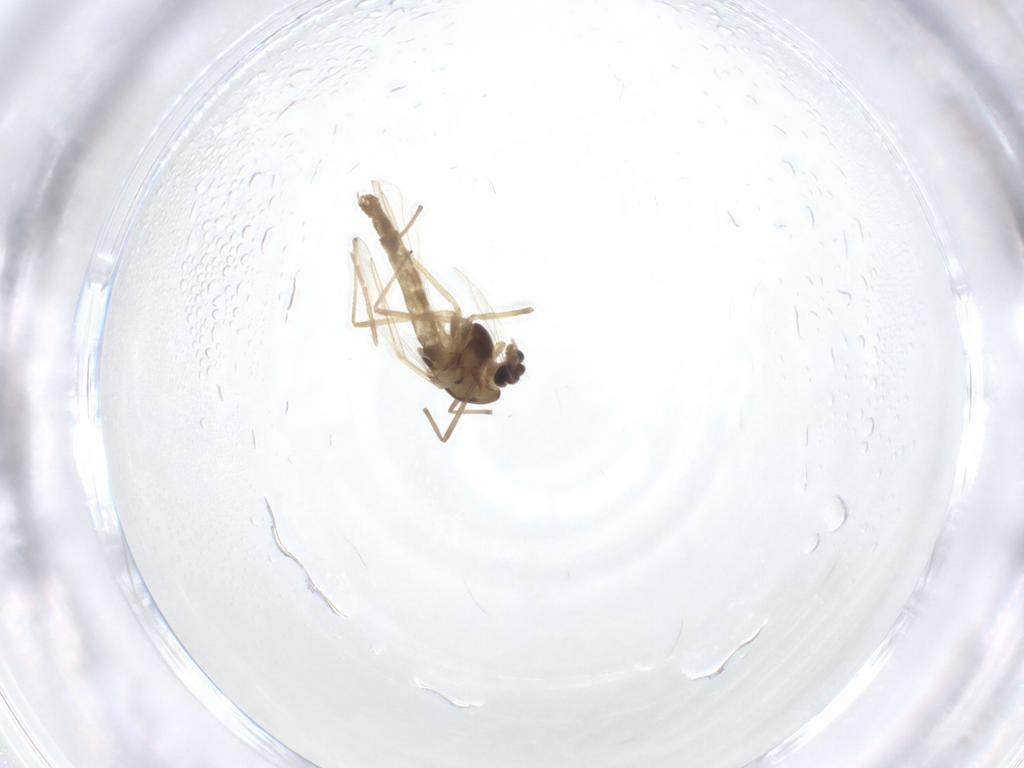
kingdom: Animalia
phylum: Arthropoda
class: Insecta
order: Diptera
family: Chironomidae
